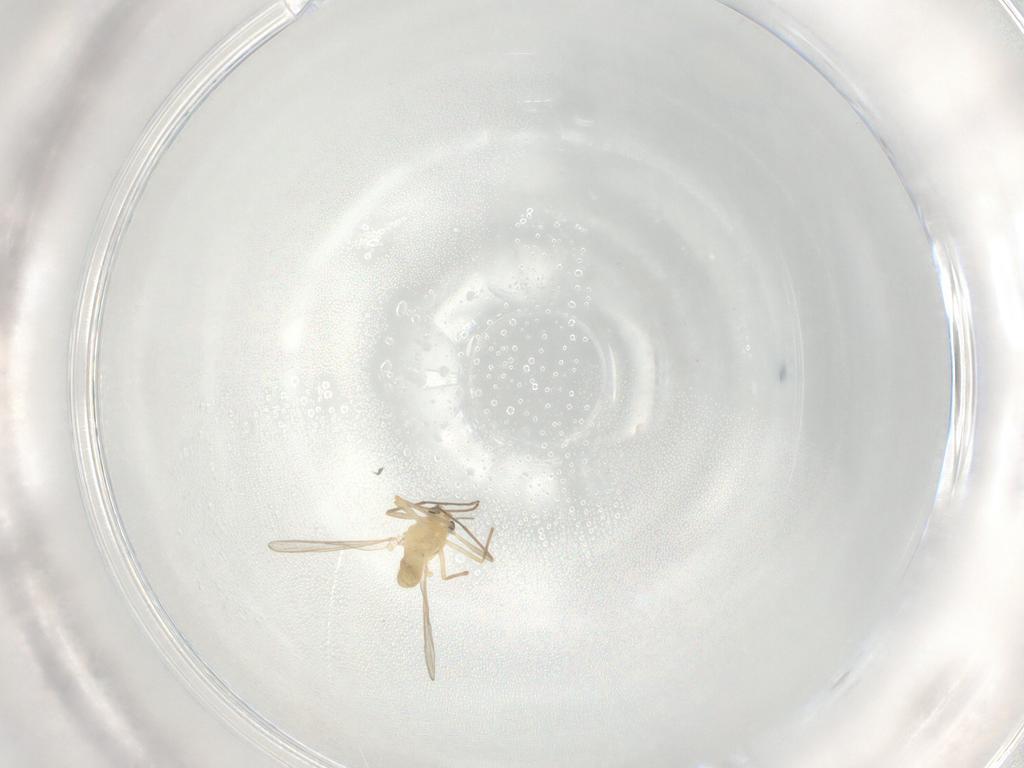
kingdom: Animalia
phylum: Arthropoda
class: Insecta
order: Diptera
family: Chironomidae
